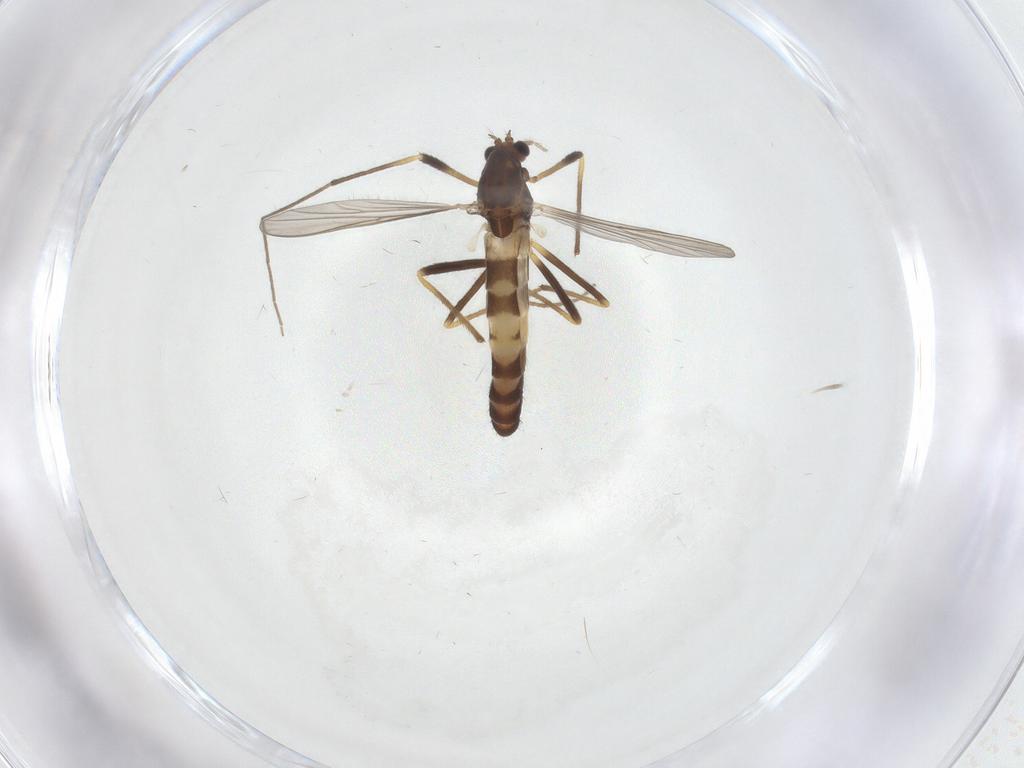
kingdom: Animalia
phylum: Arthropoda
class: Insecta
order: Diptera
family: Chironomidae
